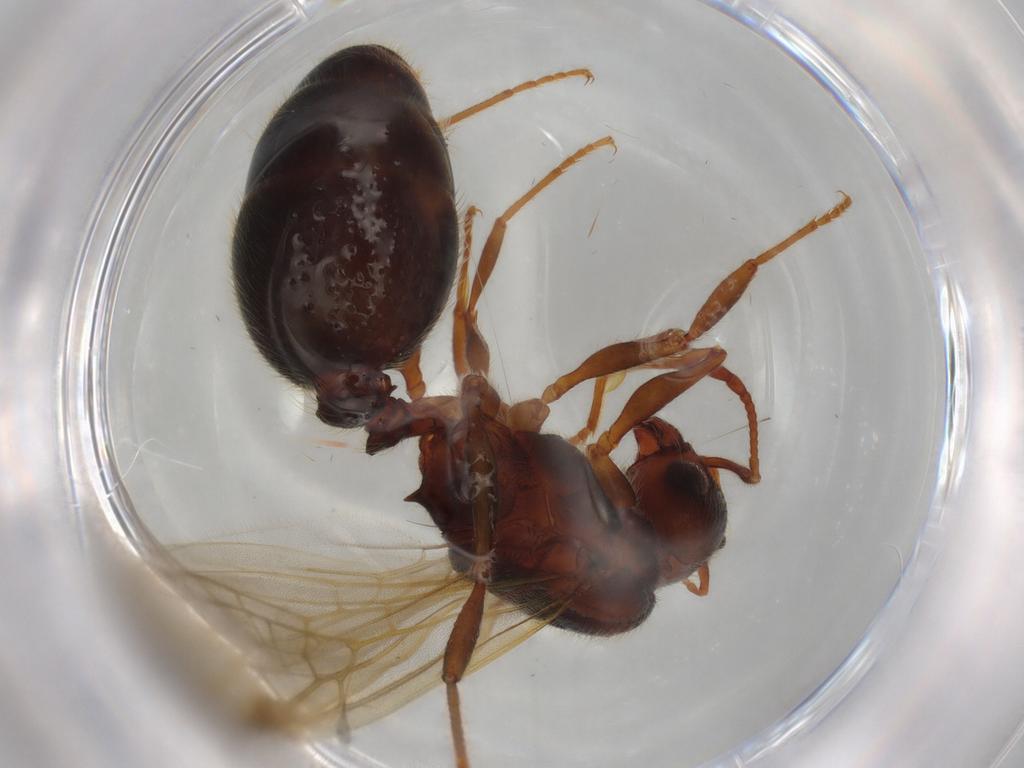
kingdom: Animalia
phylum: Arthropoda
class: Insecta
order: Hymenoptera
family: Formicidae
